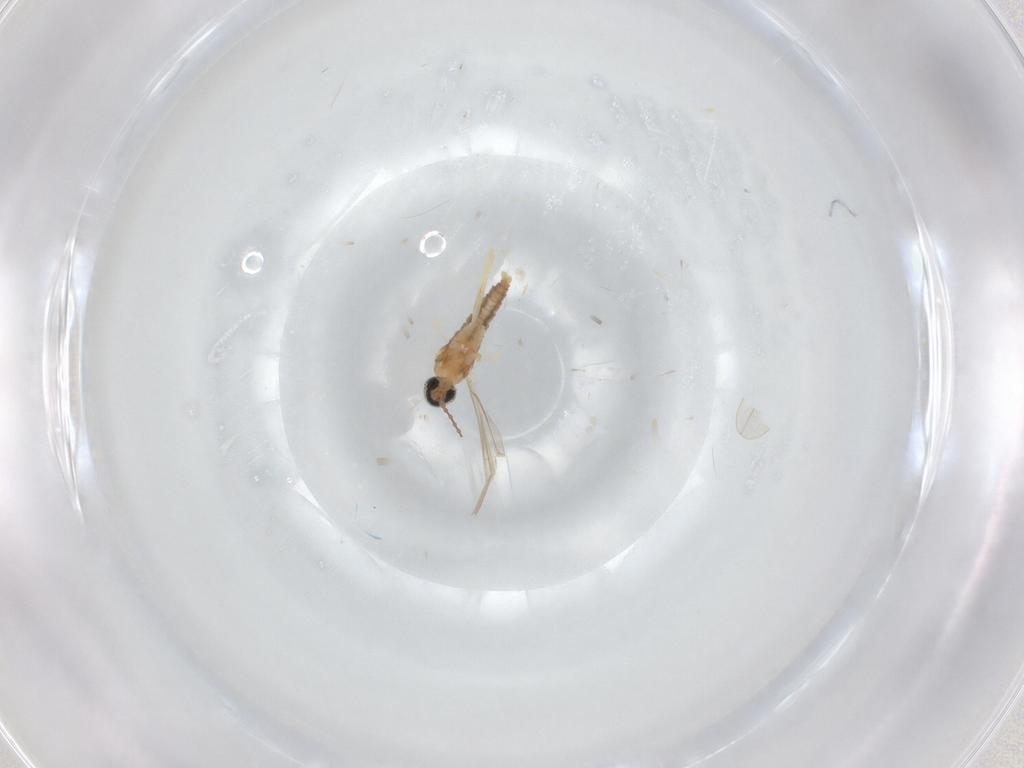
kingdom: Animalia
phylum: Arthropoda
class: Insecta
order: Diptera
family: Cecidomyiidae
